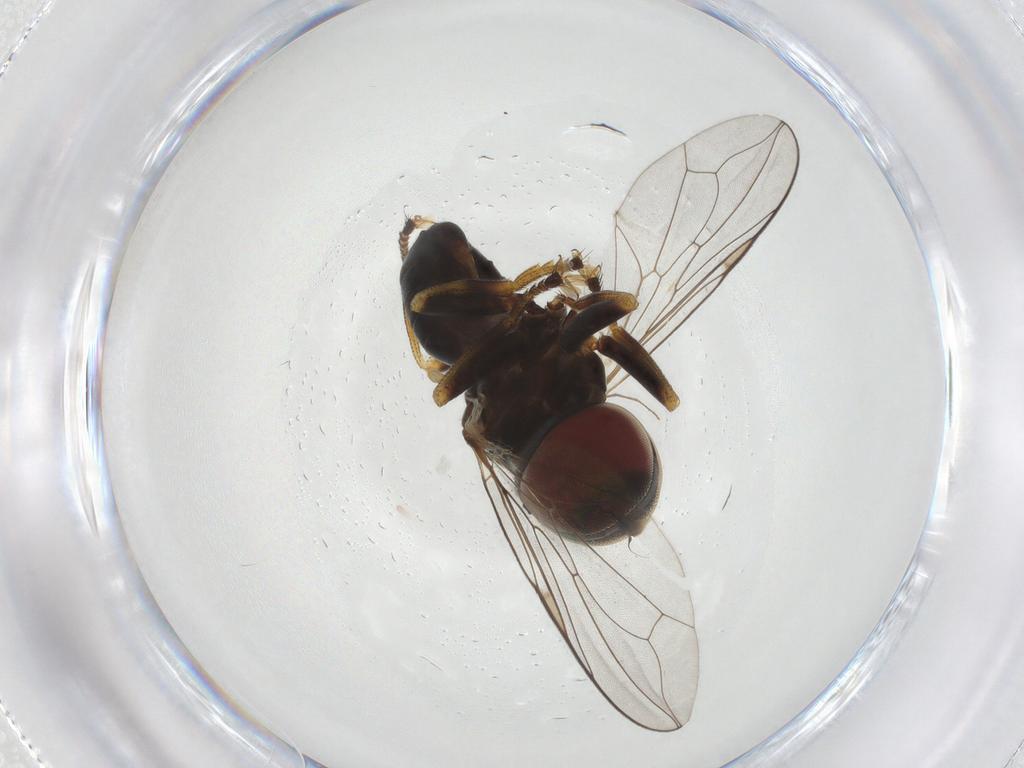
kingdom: Animalia
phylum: Arthropoda
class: Insecta
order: Diptera
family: Pipunculidae
